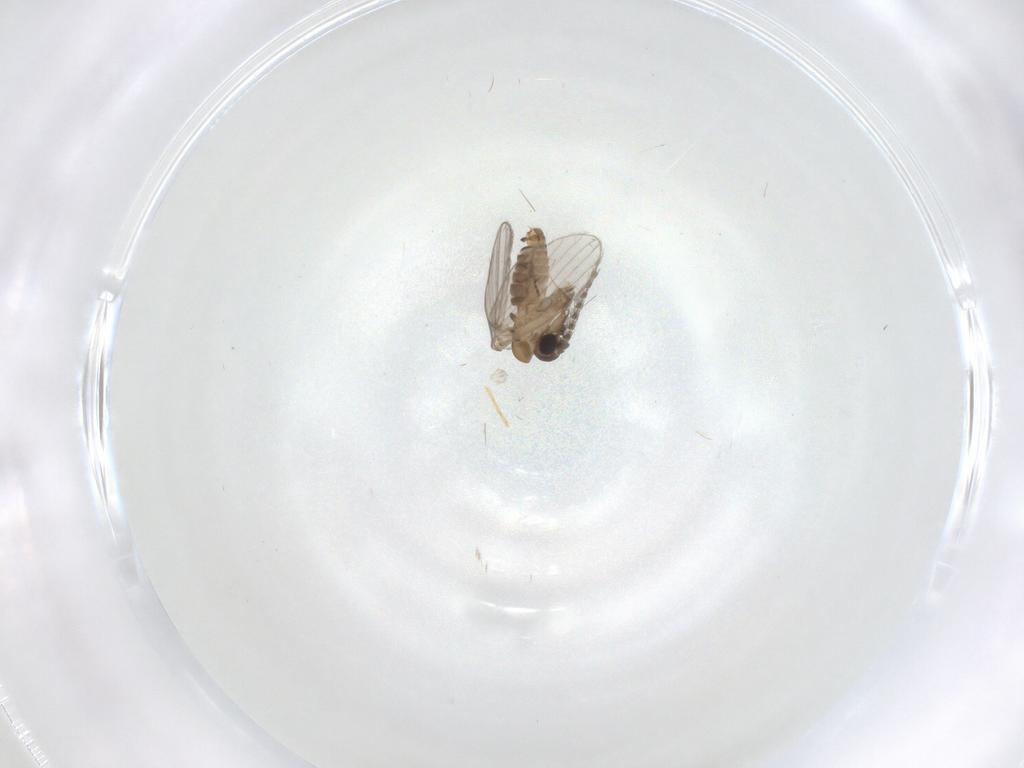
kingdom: Animalia
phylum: Arthropoda
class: Insecta
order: Diptera
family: Psychodidae
